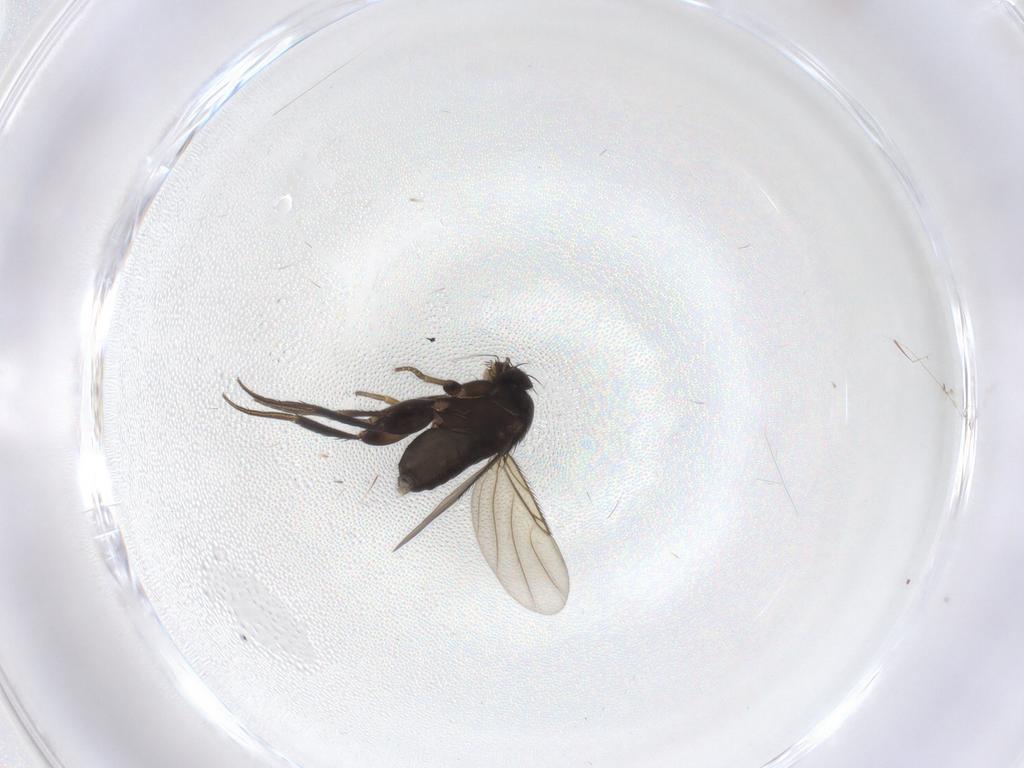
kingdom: Animalia
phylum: Arthropoda
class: Insecta
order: Diptera
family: Phoridae
